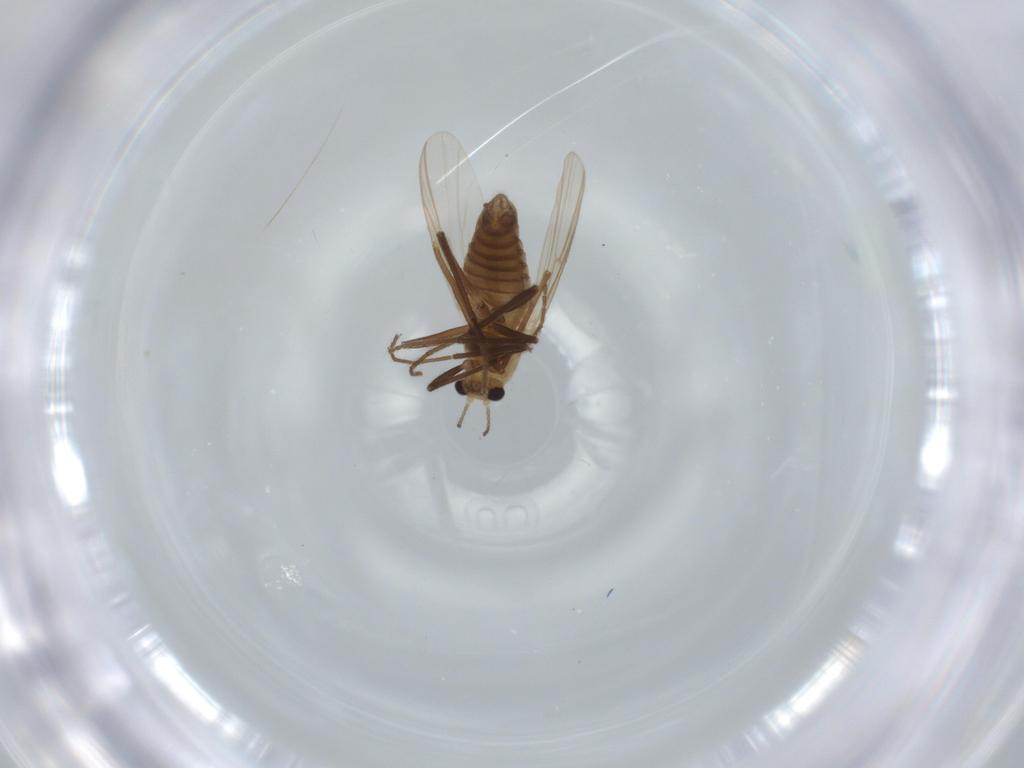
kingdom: Animalia
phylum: Arthropoda
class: Insecta
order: Diptera
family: Chironomidae
